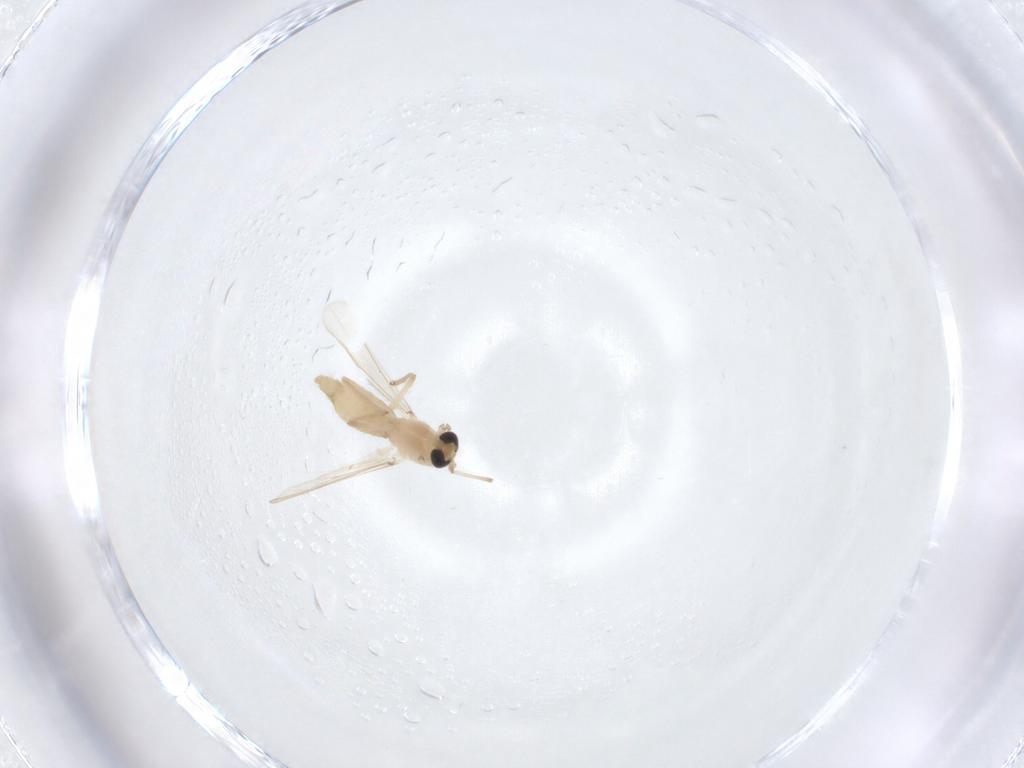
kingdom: Animalia
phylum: Arthropoda
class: Insecta
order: Diptera
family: Chironomidae
